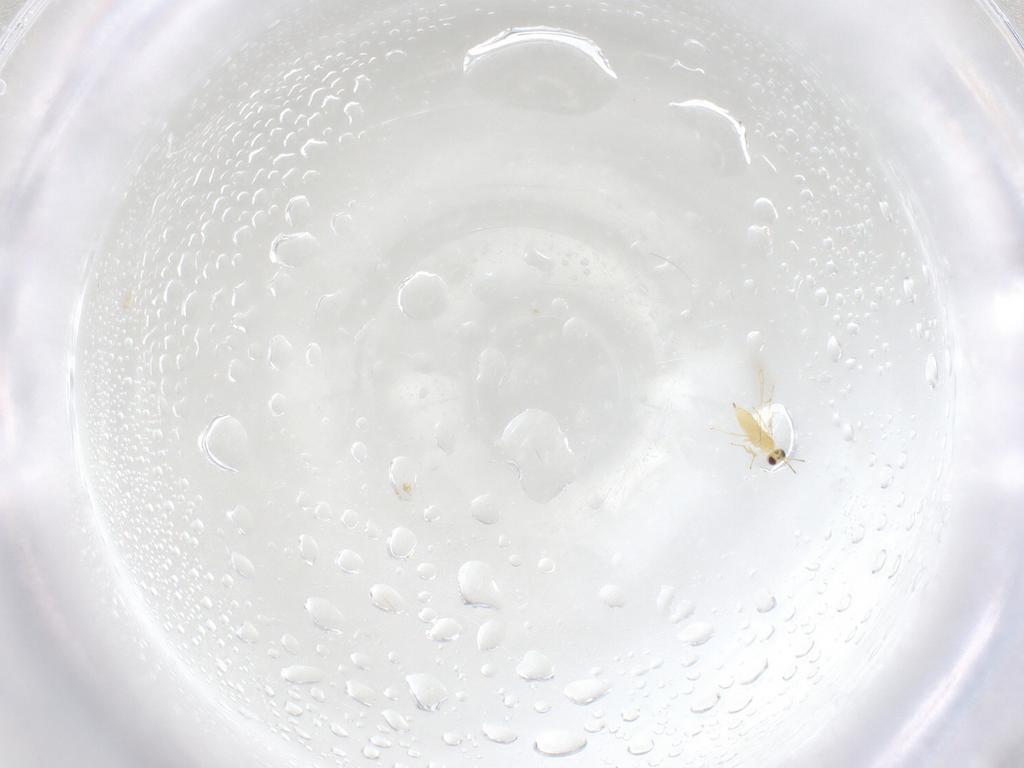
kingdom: Animalia
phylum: Arthropoda
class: Insecta
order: Hymenoptera
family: Mymaridae
